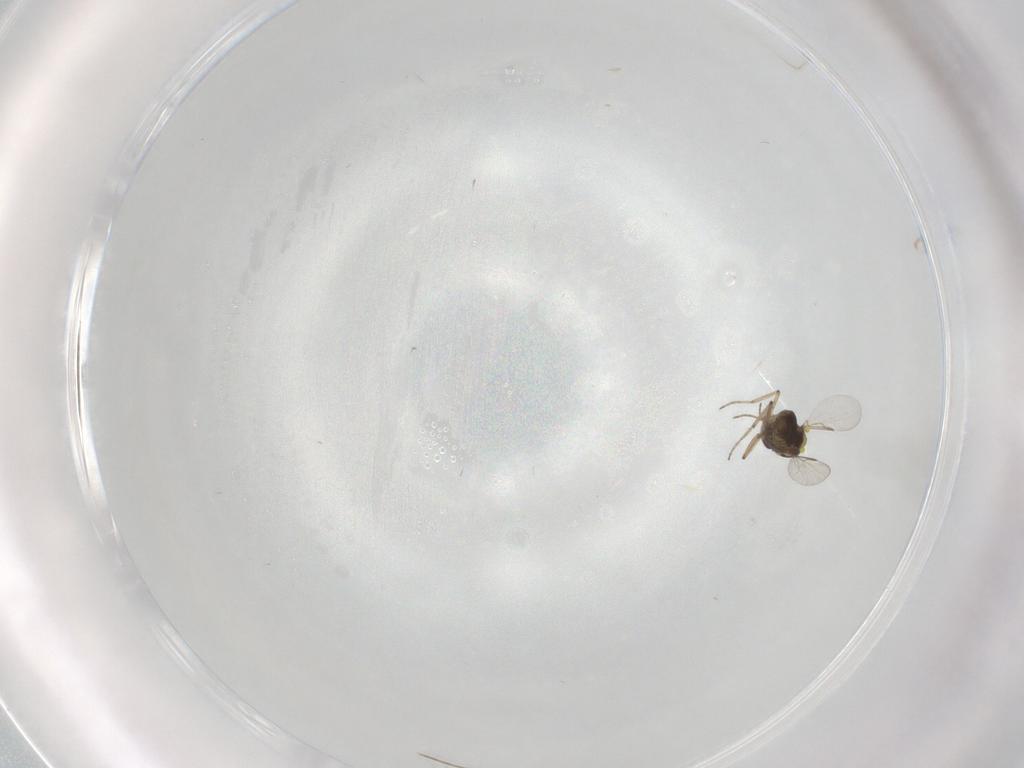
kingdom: Animalia
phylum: Arthropoda
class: Insecta
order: Diptera
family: Ceratopogonidae
